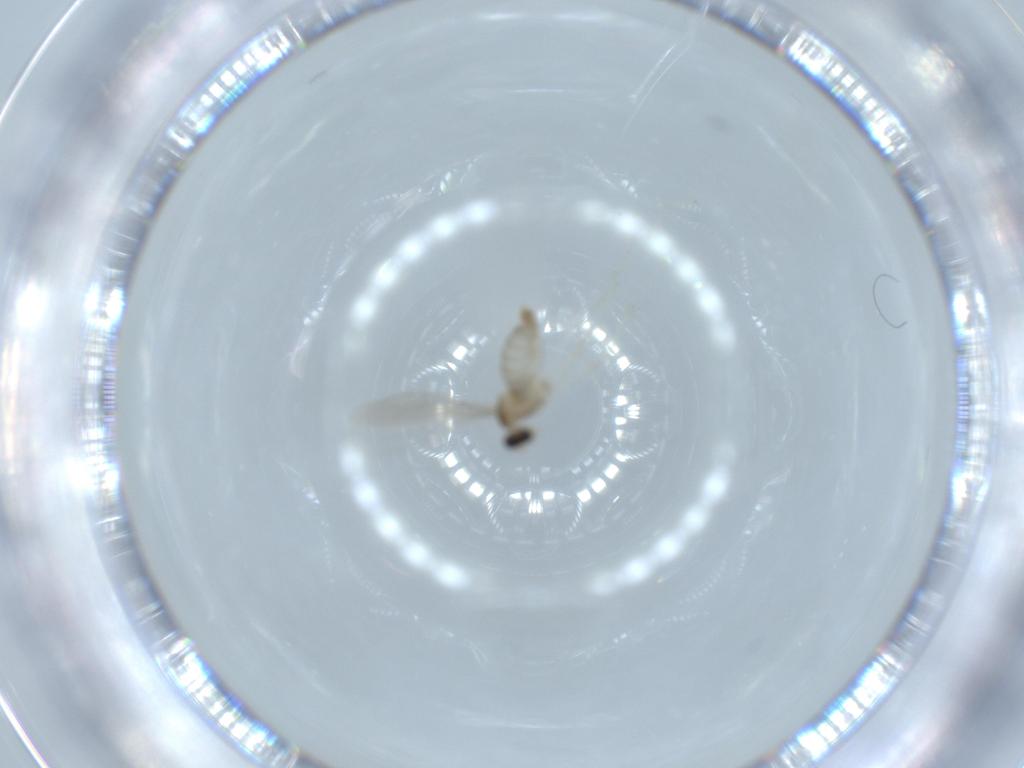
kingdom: Animalia
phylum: Arthropoda
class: Insecta
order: Diptera
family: Cecidomyiidae
